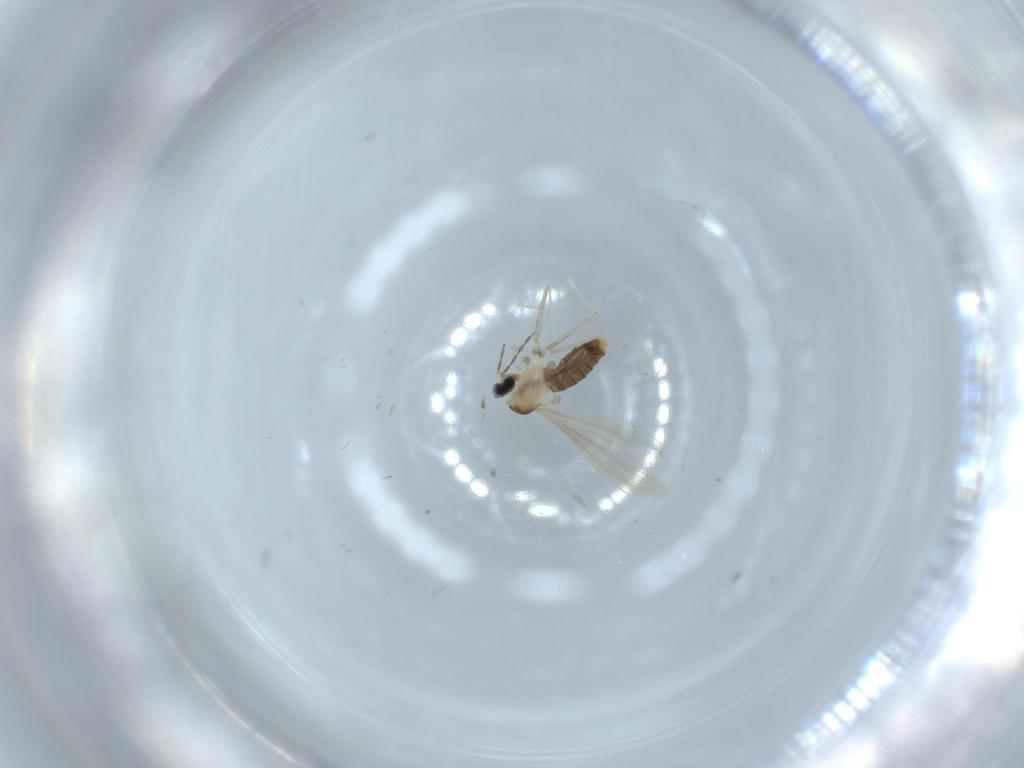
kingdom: Animalia
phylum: Arthropoda
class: Insecta
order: Diptera
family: Cecidomyiidae
